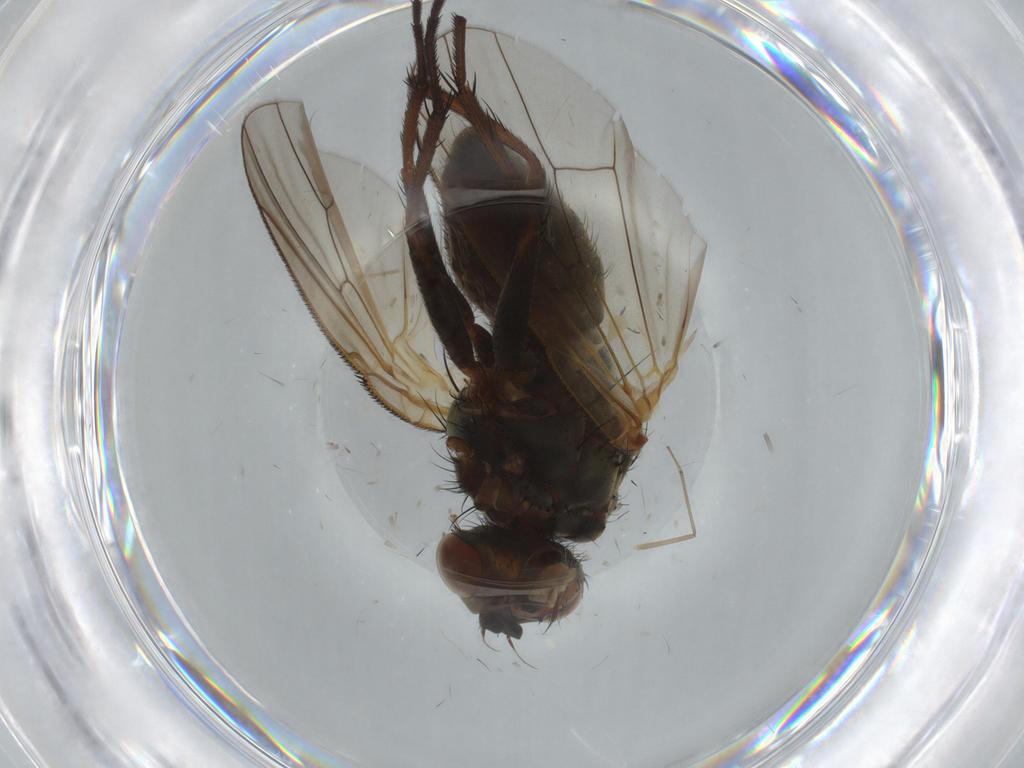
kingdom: Animalia
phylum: Arthropoda
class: Insecta
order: Diptera
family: Anthomyiidae
